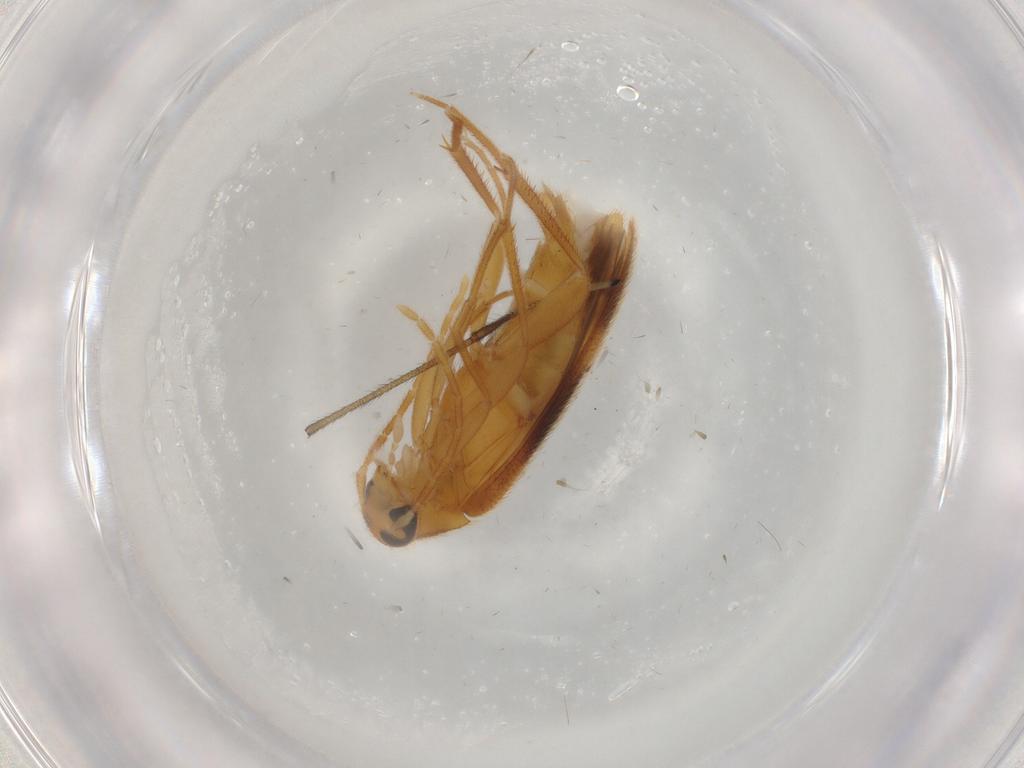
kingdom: Animalia
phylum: Arthropoda
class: Insecta
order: Coleoptera
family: Scraptiidae
